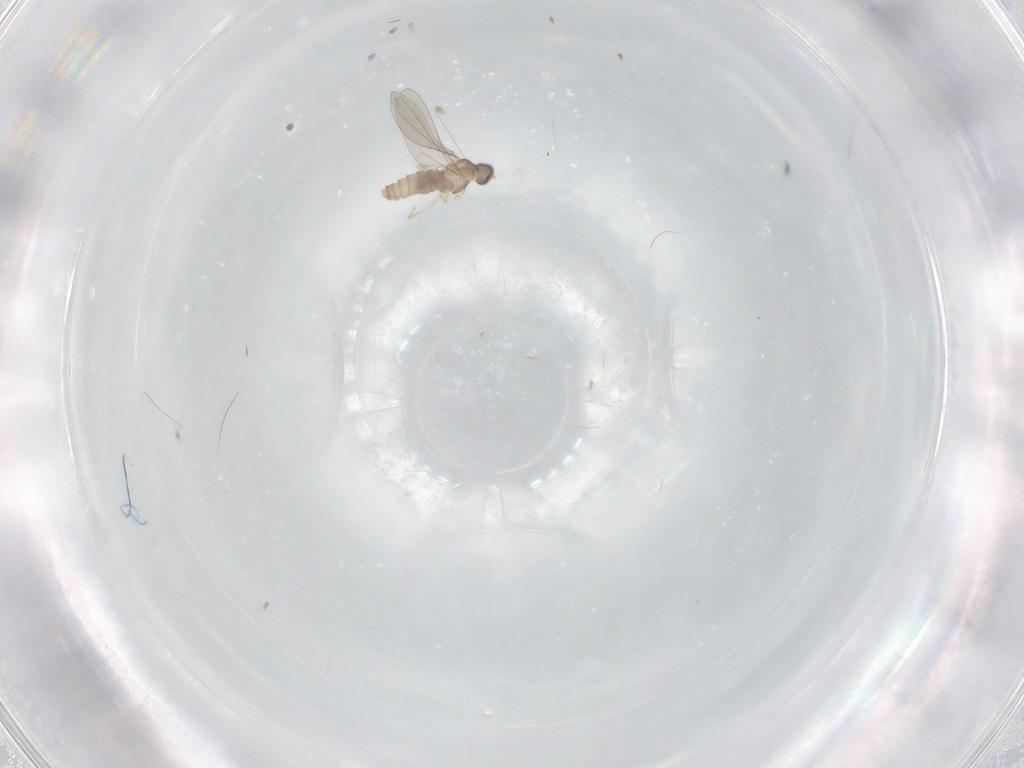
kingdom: Animalia
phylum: Arthropoda
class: Insecta
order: Diptera
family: Cecidomyiidae
